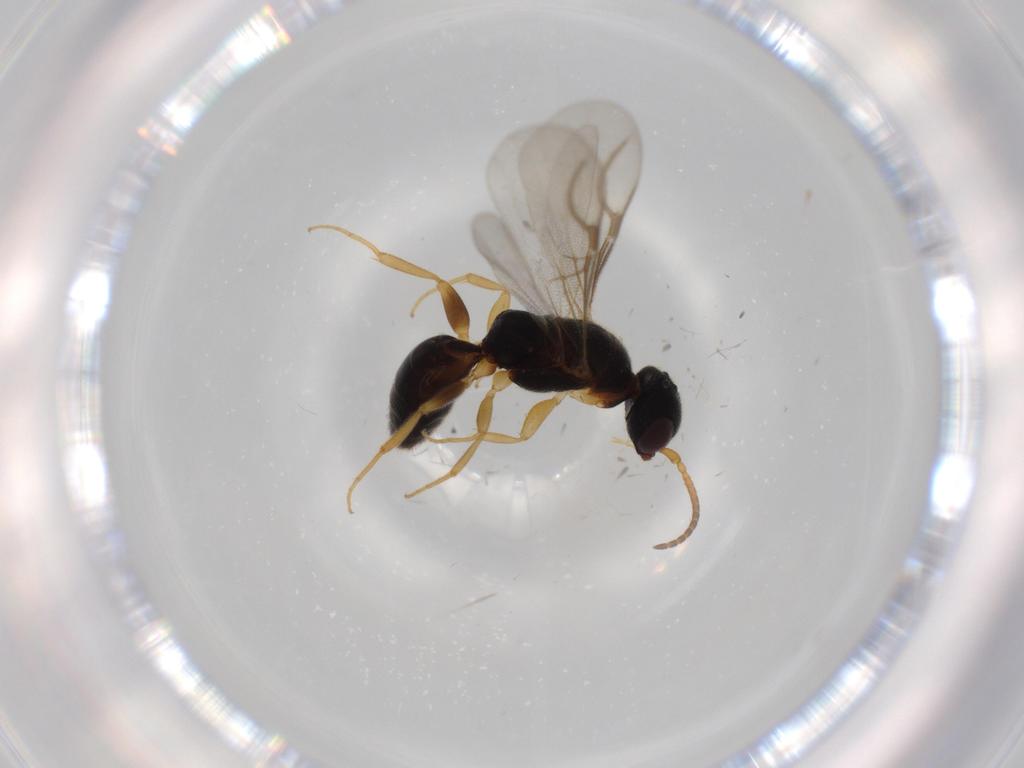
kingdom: Animalia
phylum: Arthropoda
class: Insecta
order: Hymenoptera
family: Bethylidae
